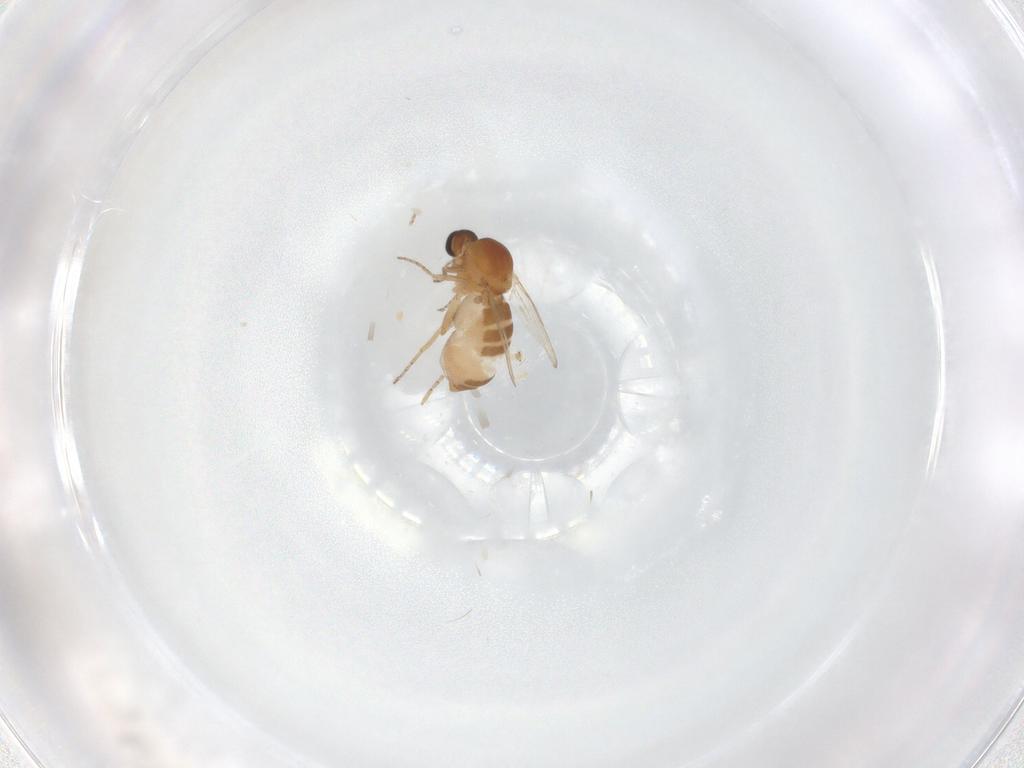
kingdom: Animalia
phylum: Arthropoda
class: Insecta
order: Diptera
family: Ceratopogonidae
